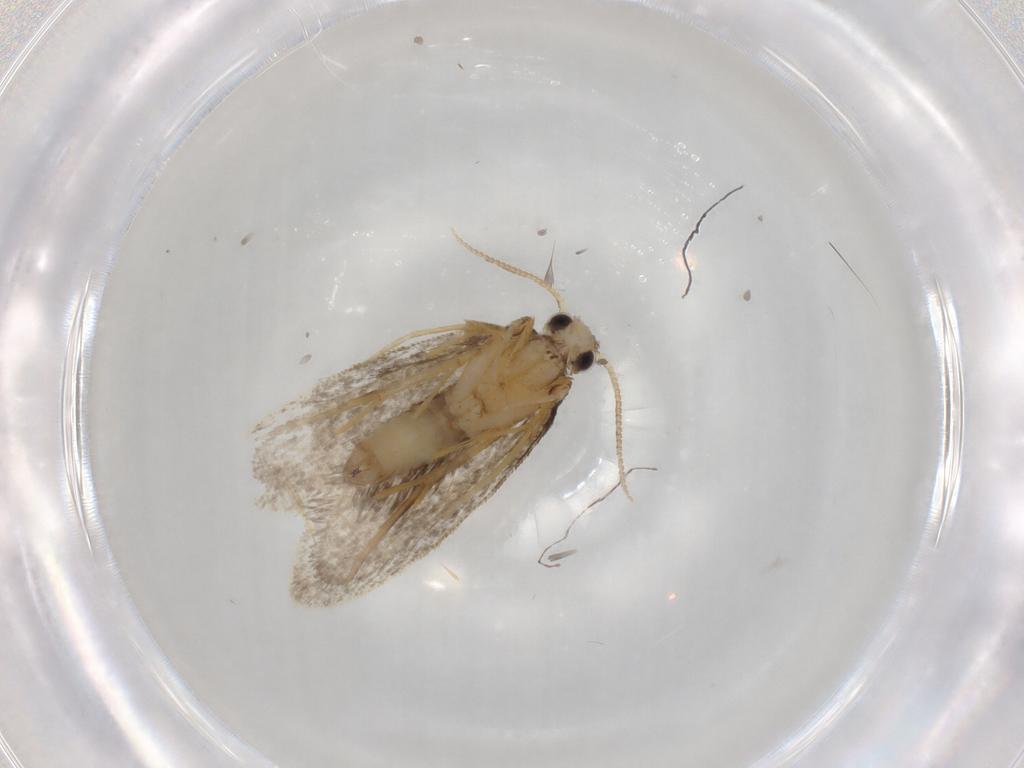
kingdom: Animalia
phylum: Arthropoda
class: Insecta
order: Lepidoptera
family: Psychidae
